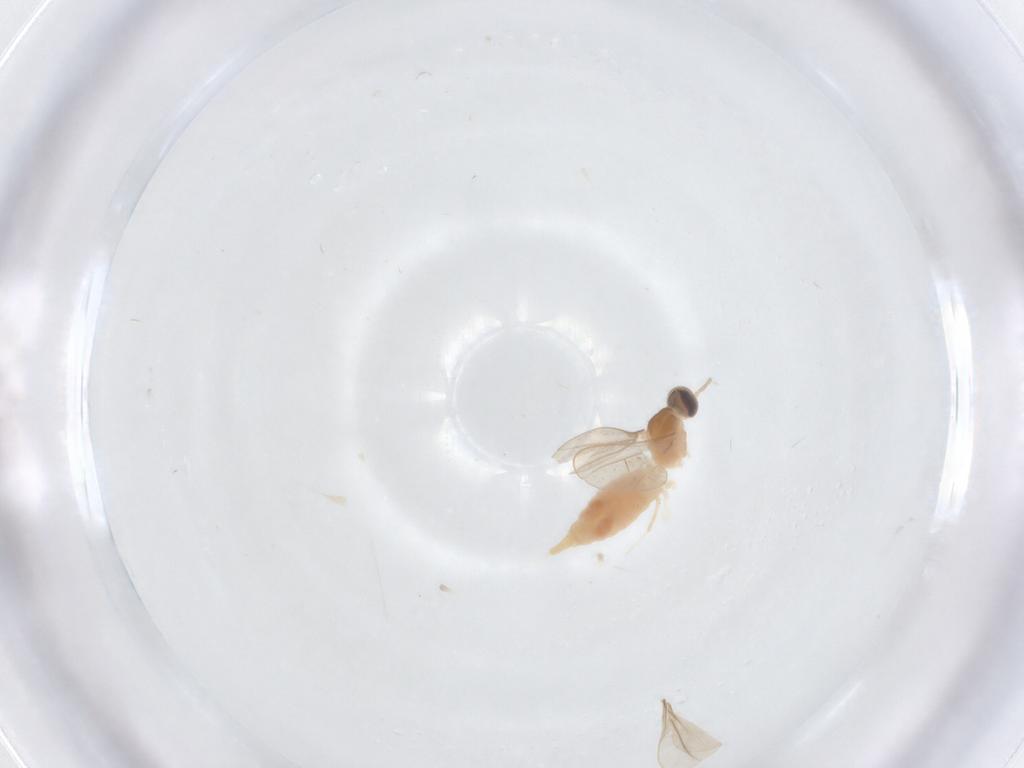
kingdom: Animalia
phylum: Arthropoda
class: Insecta
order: Diptera
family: Cecidomyiidae
